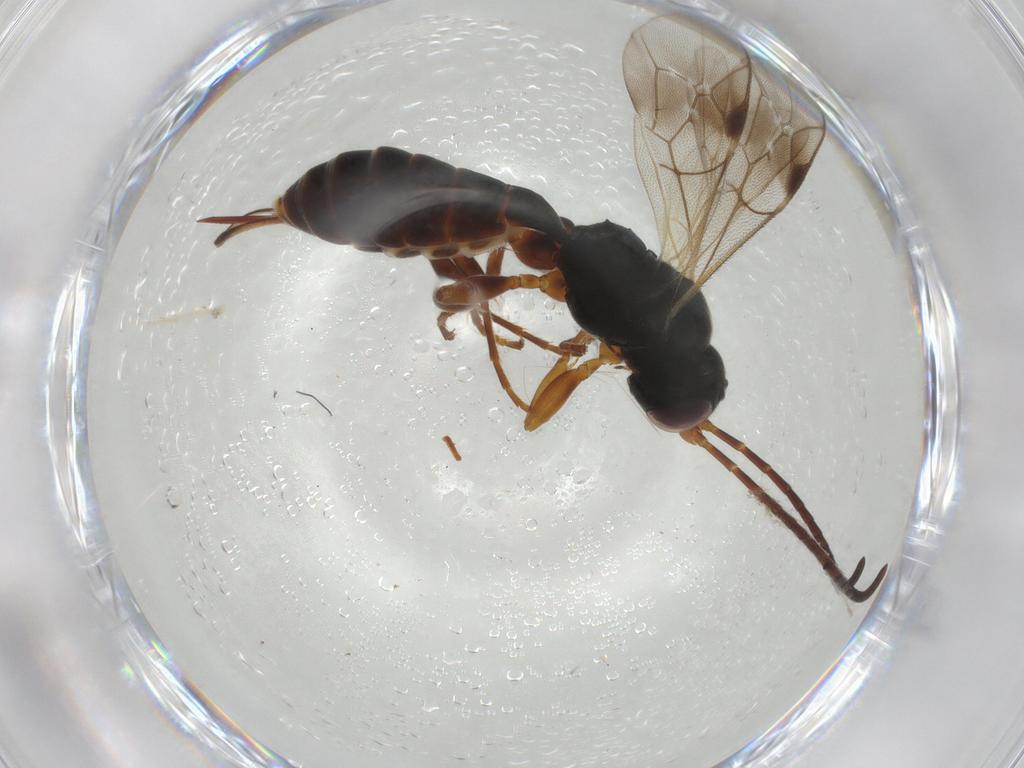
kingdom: Animalia
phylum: Arthropoda
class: Insecta
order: Hymenoptera
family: Ichneumonidae
